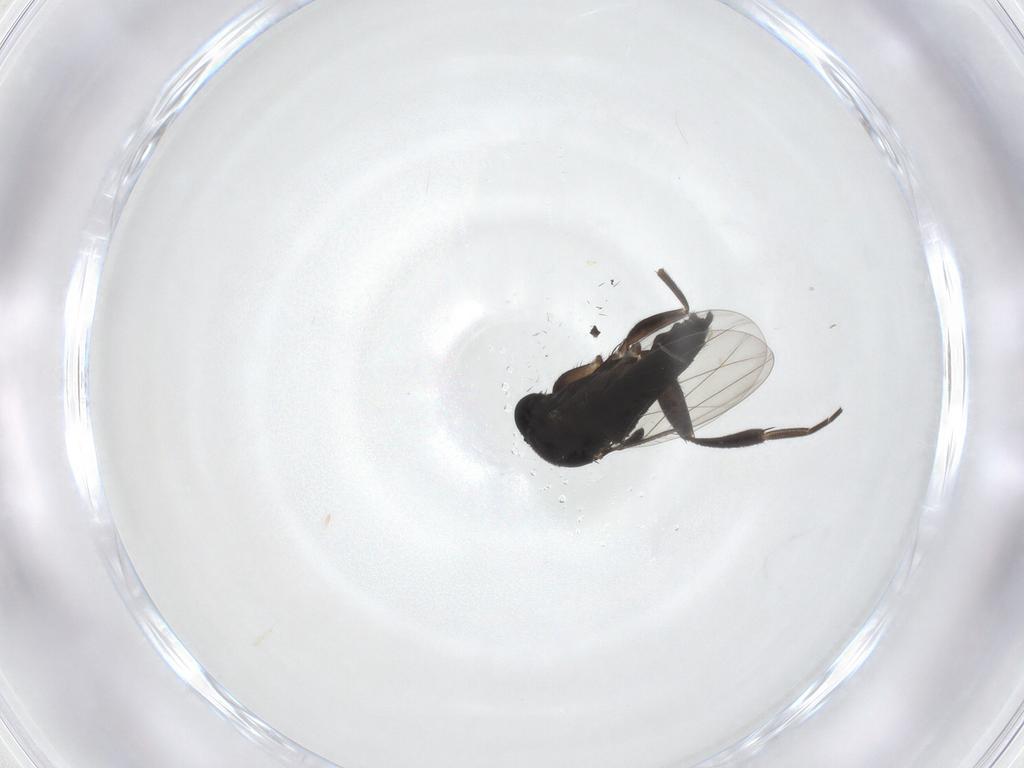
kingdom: Animalia
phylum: Arthropoda
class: Insecta
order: Diptera
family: Chironomidae
